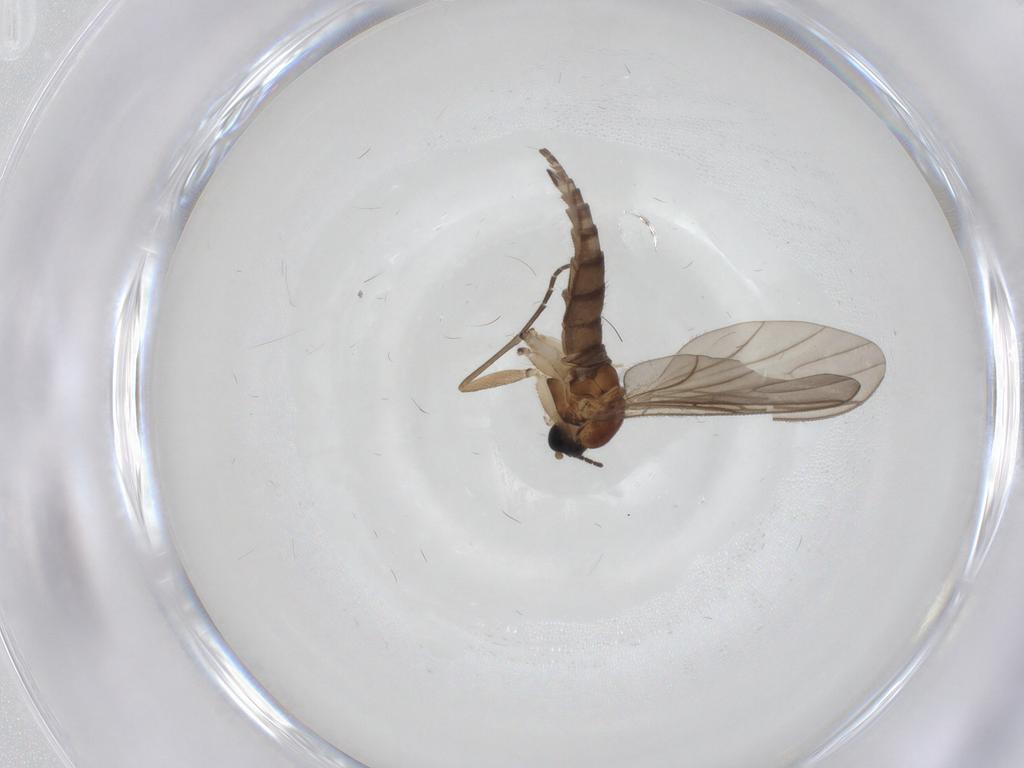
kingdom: Animalia
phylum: Arthropoda
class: Insecta
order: Diptera
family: Sciaridae
